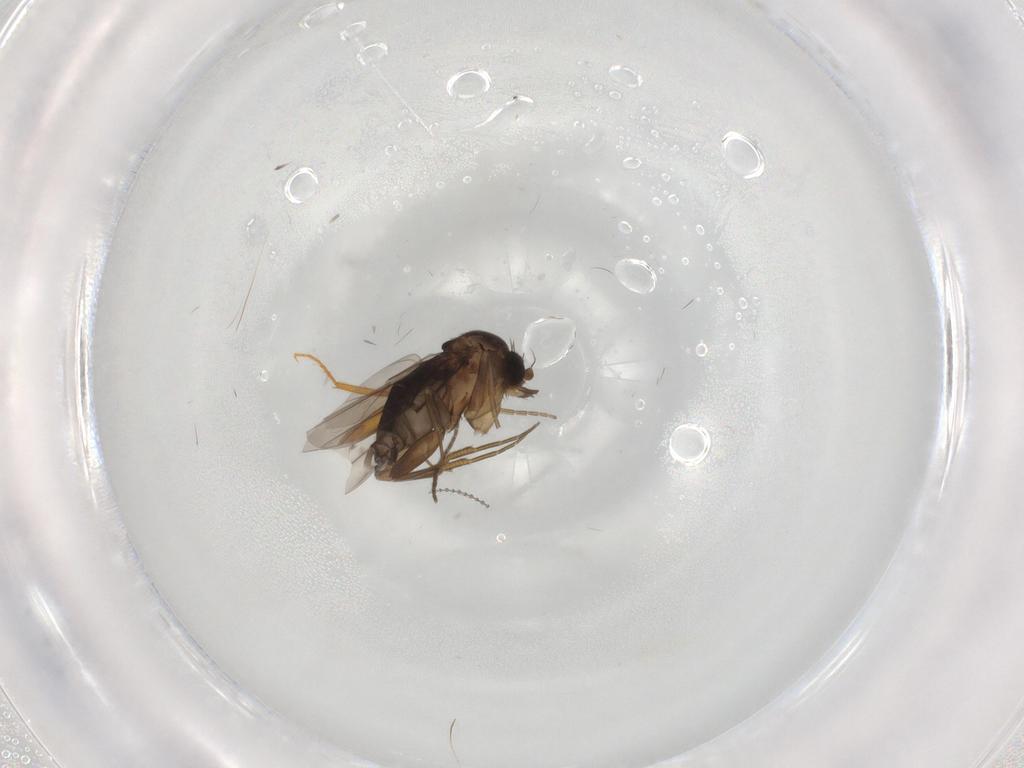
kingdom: Animalia
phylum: Arthropoda
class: Insecta
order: Diptera
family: Phoridae
